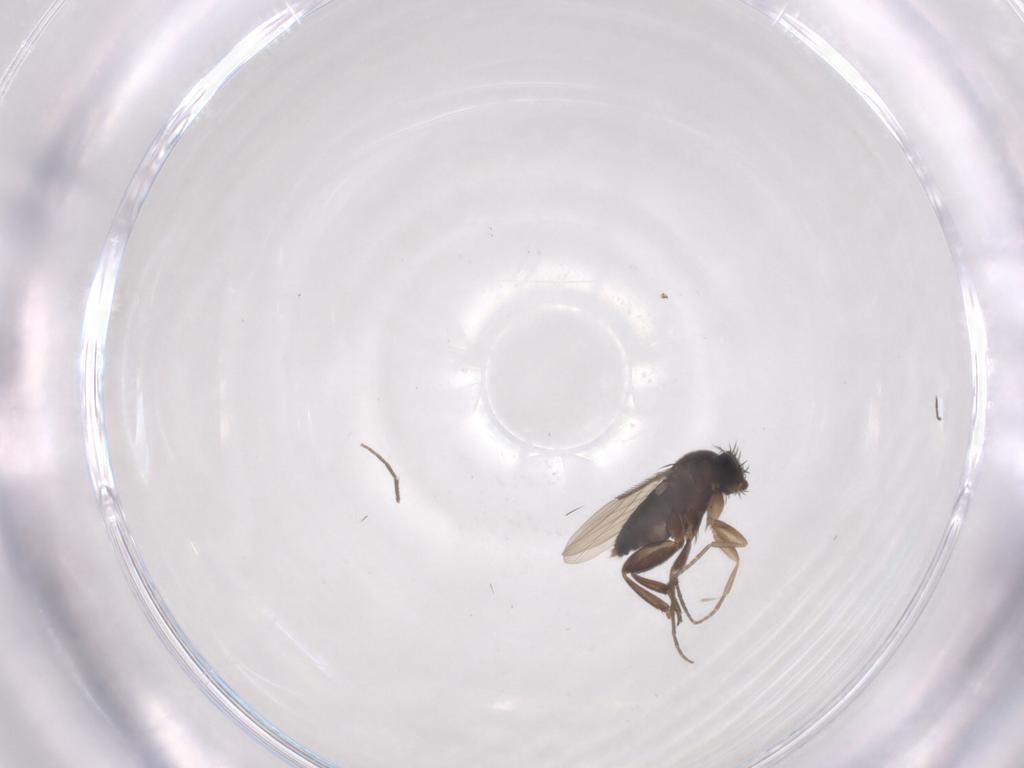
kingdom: Animalia
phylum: Arthropoda
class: Insecta
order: Diptera
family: Phoridae
